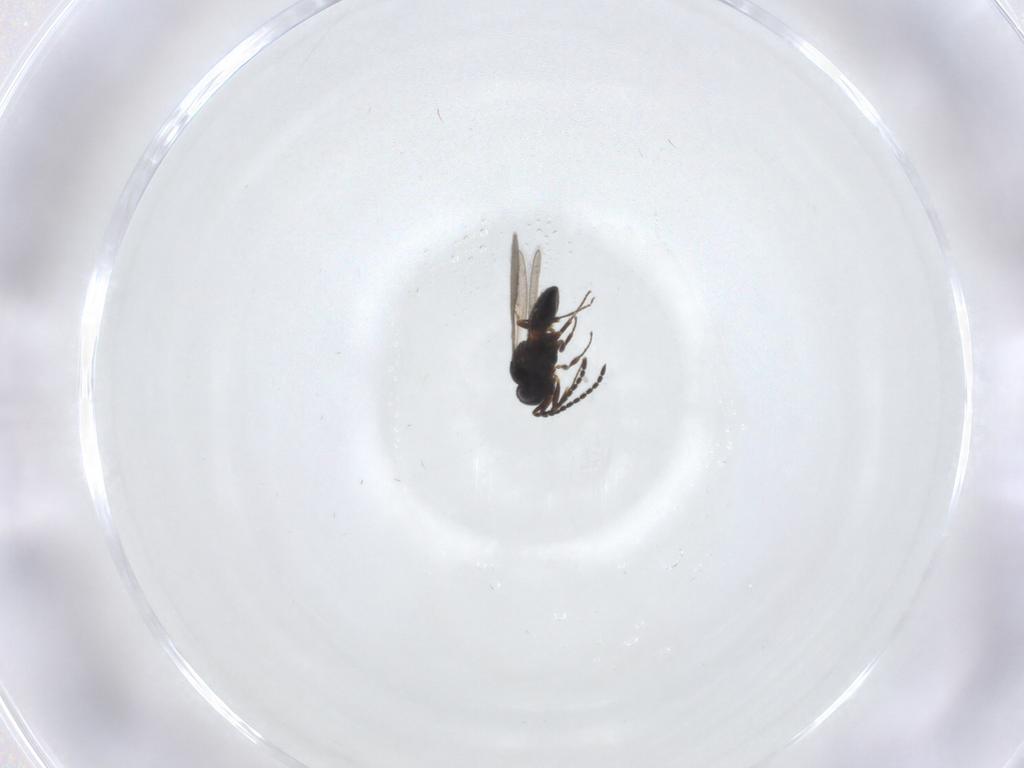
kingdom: Animalia
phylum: Arthropoda
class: Insecta
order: Hymenoptera
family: Scelionidae
